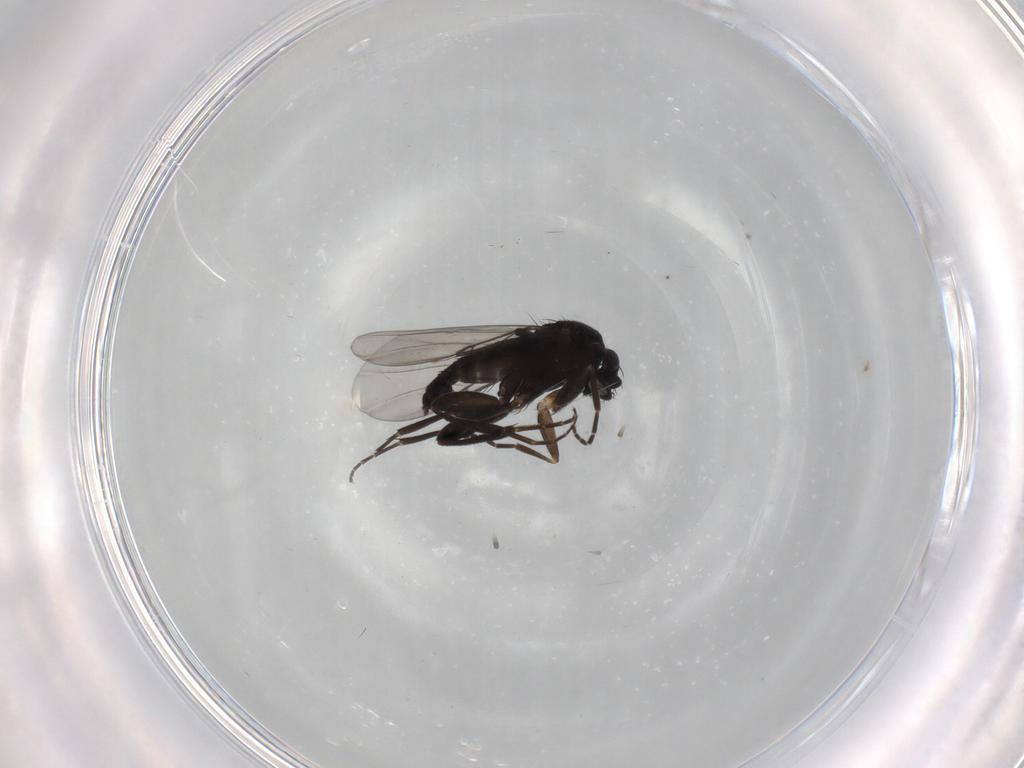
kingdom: Animalia
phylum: Arthropoda
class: Insecta
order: Diptera
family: Phoridae
